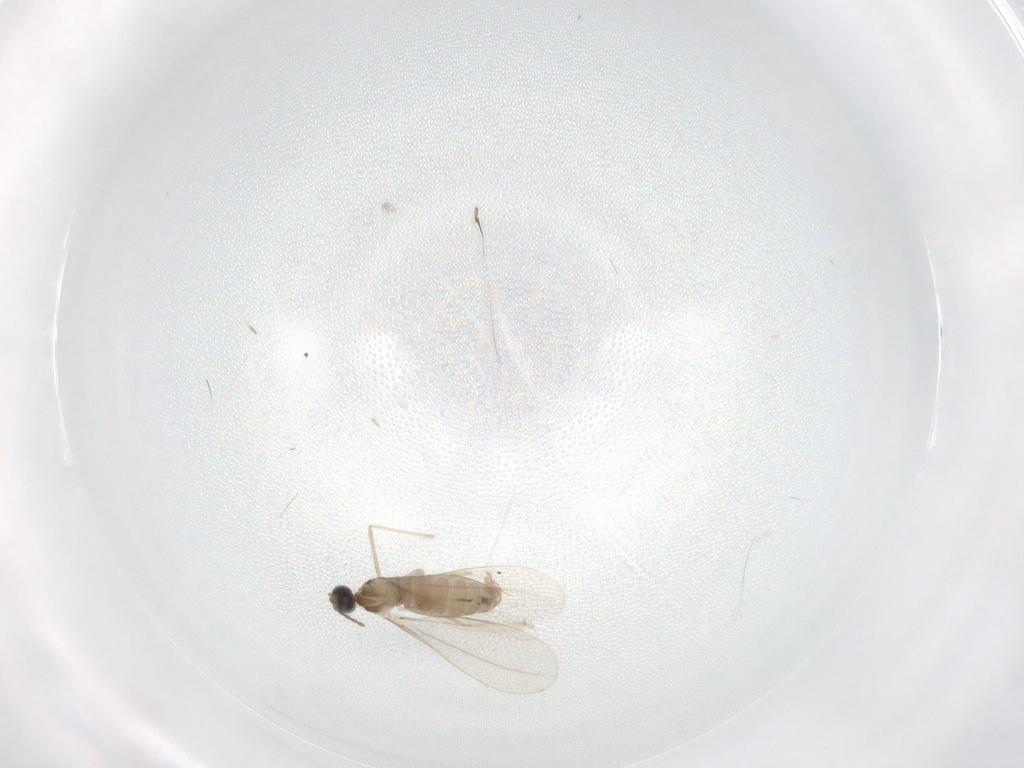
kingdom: Animalia
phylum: Arthropoda
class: Insecta
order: Diptera
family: Cecidomyiidae
